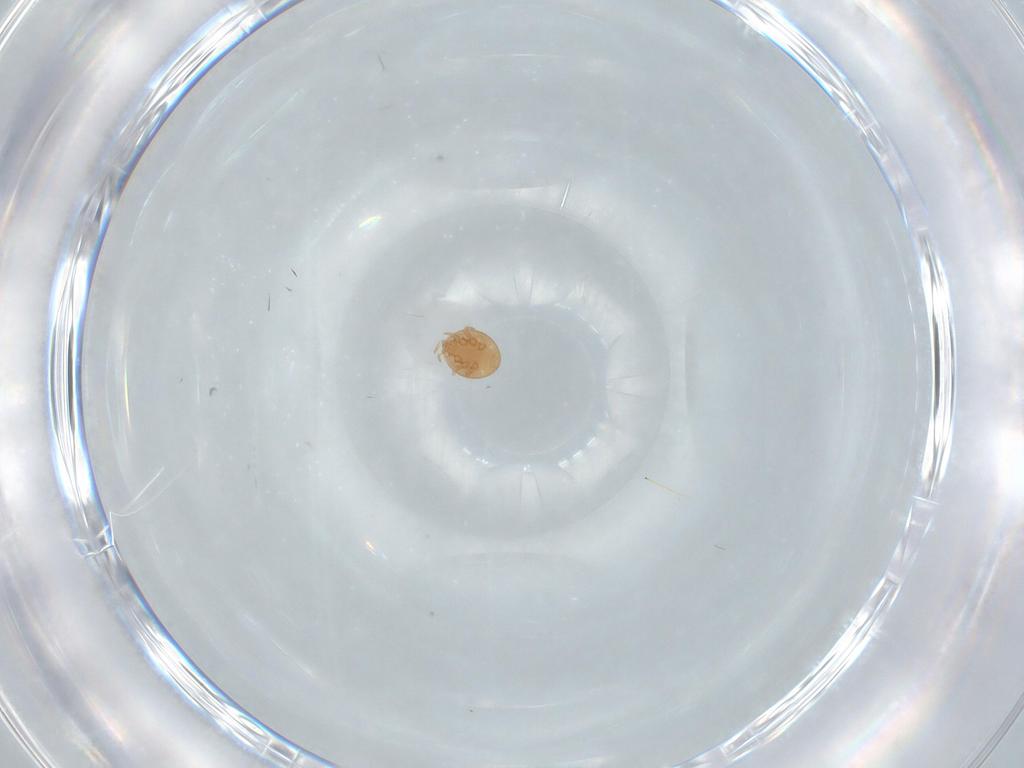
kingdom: Animalia
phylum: Arthropoda
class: Arachnida
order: Mesostigmata
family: Trematuridae
